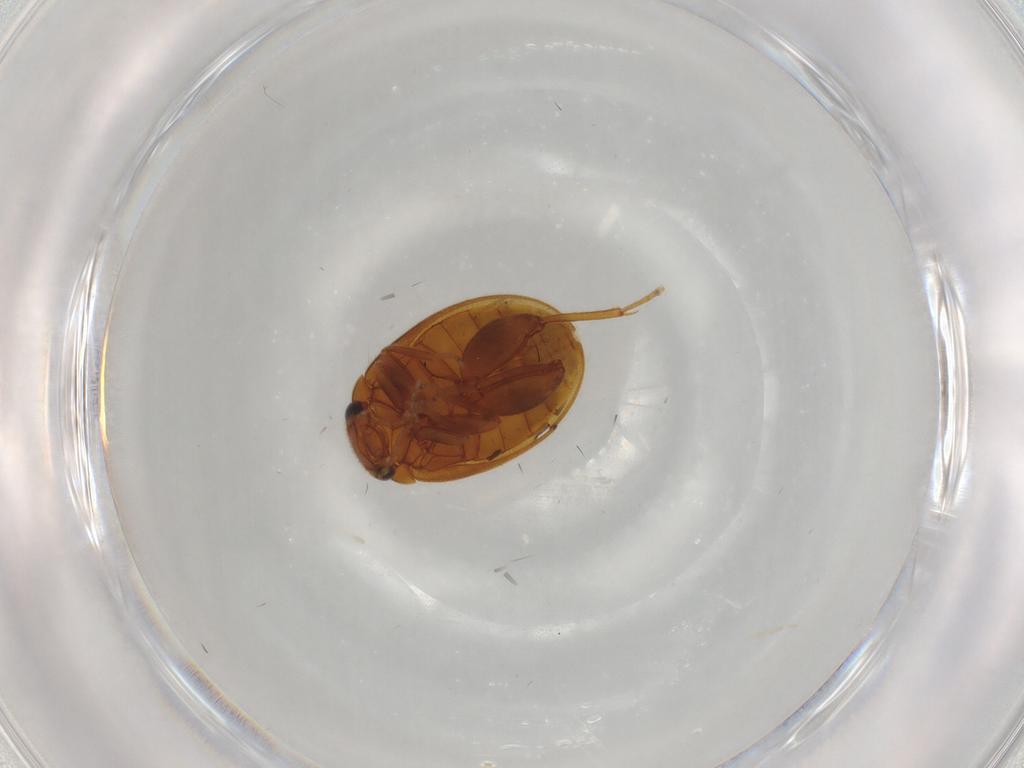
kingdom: Animalia
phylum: Arthropoda
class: Insecta
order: Coleoptera
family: Scirtidae
